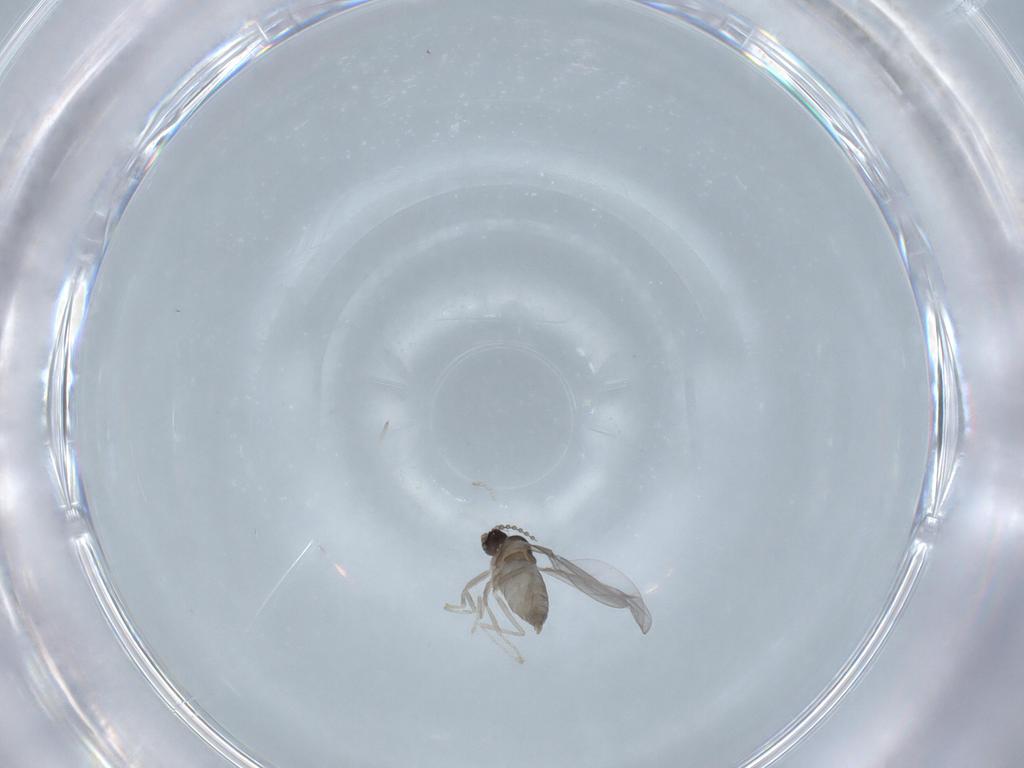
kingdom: Animalia
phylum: Arthropoda
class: Insecta
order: Diptera
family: Cecidomyiidae
